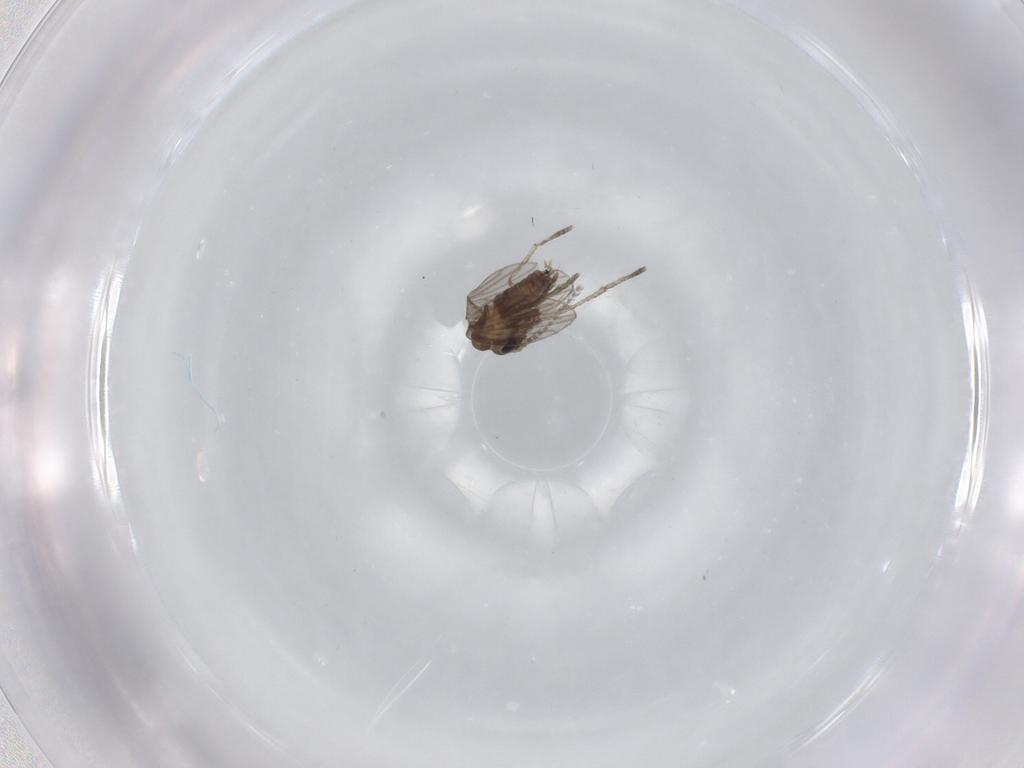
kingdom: Animalia
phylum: Arthropoda
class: Insecta
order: Diptera
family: Psychodidae
